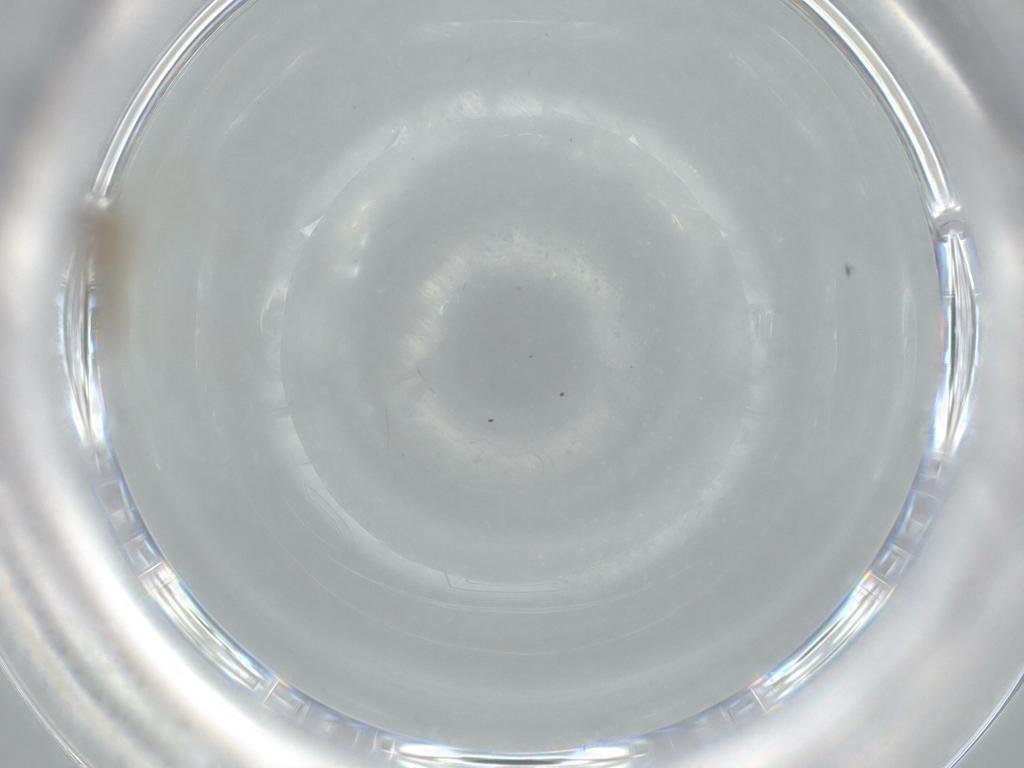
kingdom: Animalia
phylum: Arthropoda
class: Insecta
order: Diptera
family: Cecidomyiidae
